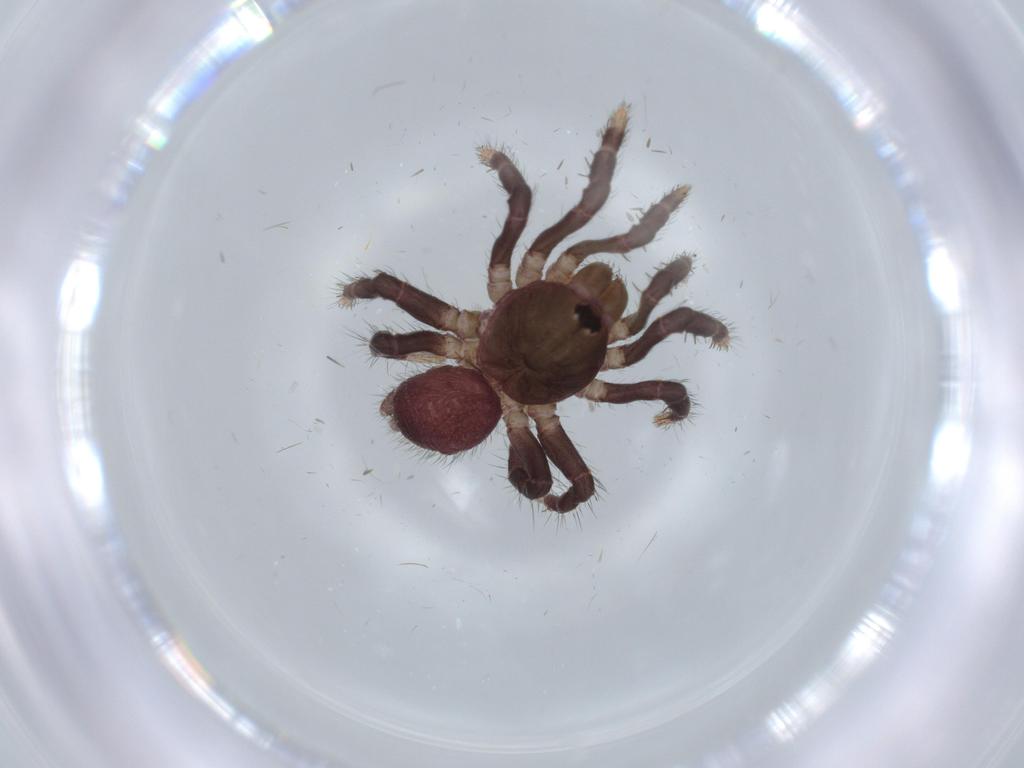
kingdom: Animalia
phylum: Arthropoda
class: Arachnida
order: Araneae
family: Halonoproctidae
